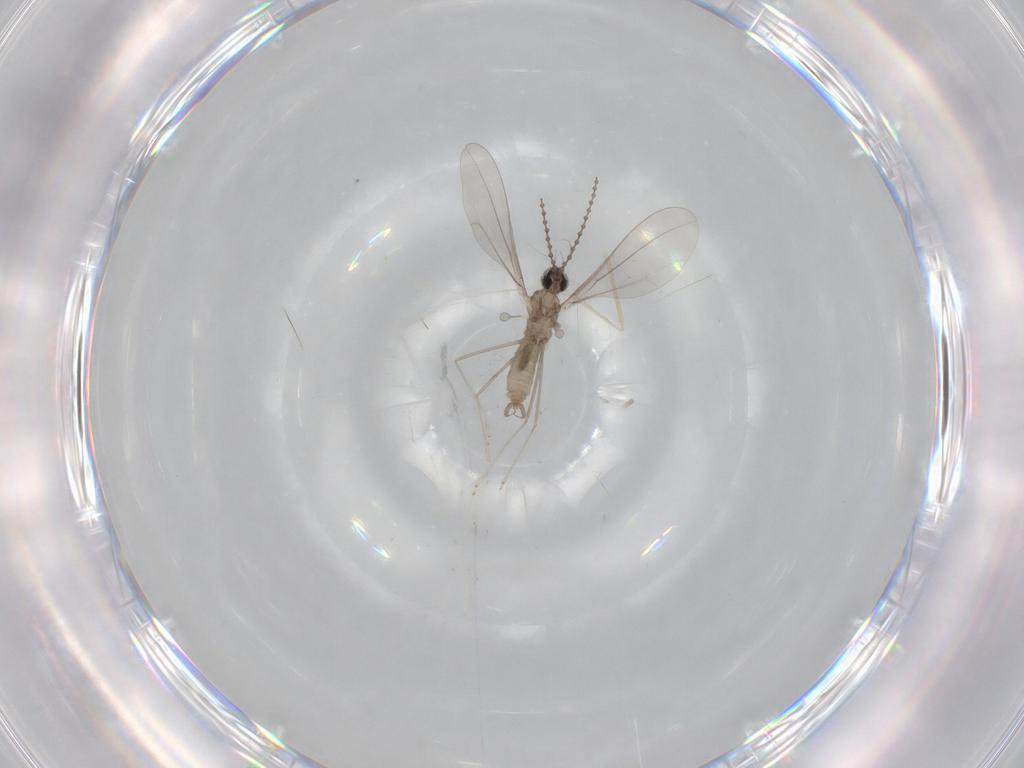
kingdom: Animalia
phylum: Arthropoda
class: Insecta
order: Diptera
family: Cecidomyiidae
